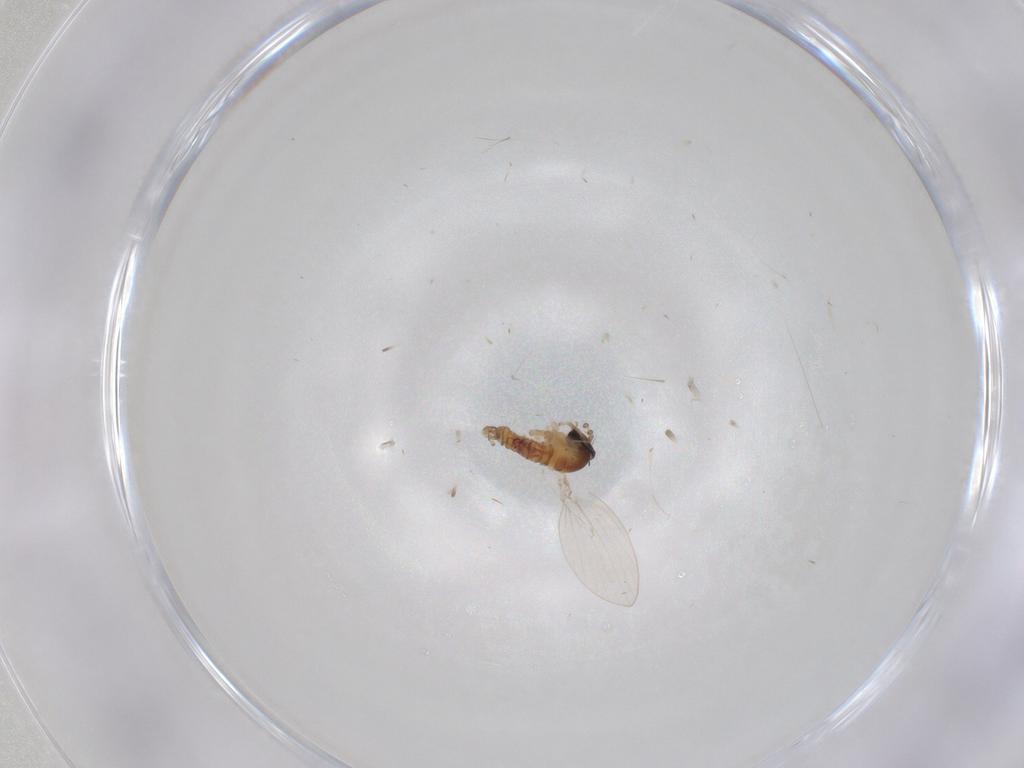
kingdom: Animalia
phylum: Arthropoda
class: Insecta
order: Diptera
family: Psychodidae
